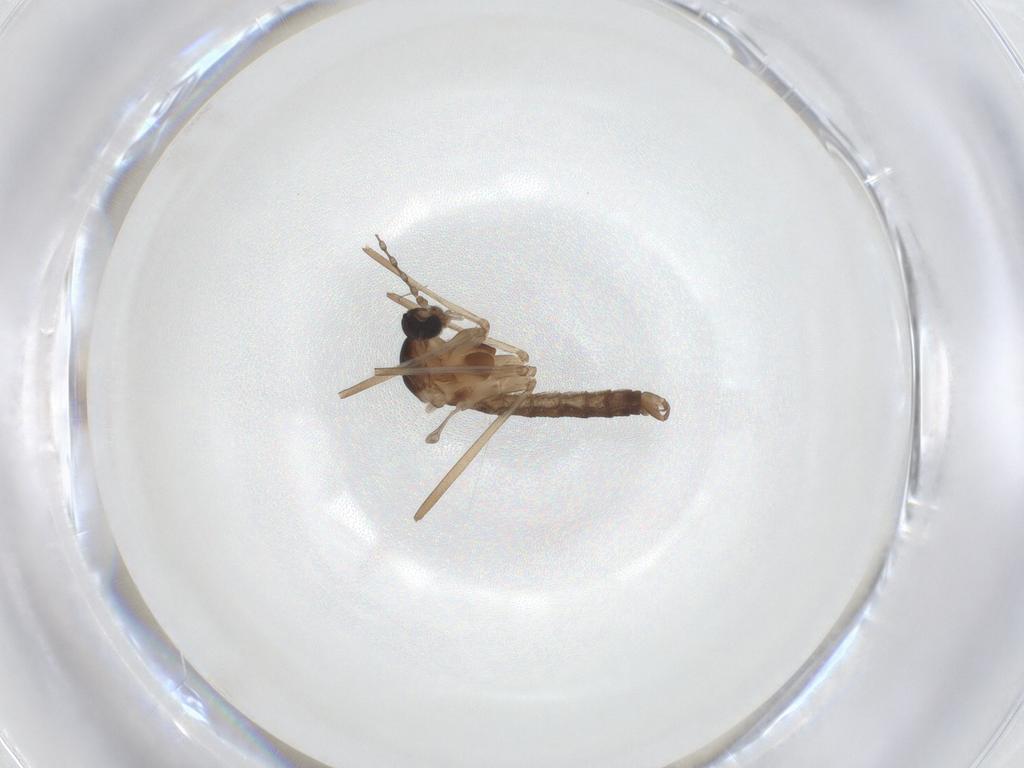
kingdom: Animalia
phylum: Arthropoda
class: Insecta
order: Diptera
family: Cecidomyiidae
